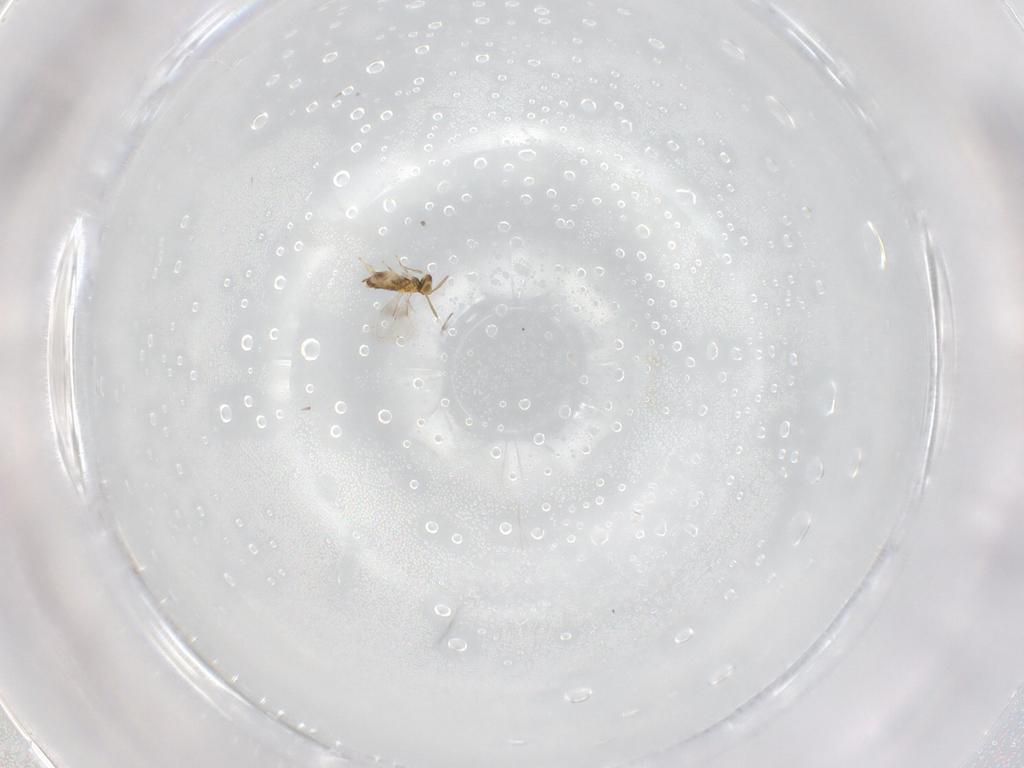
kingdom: Animalia
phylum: Arthropoda
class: Insecta
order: Hymenoptera
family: Aphelinidae
